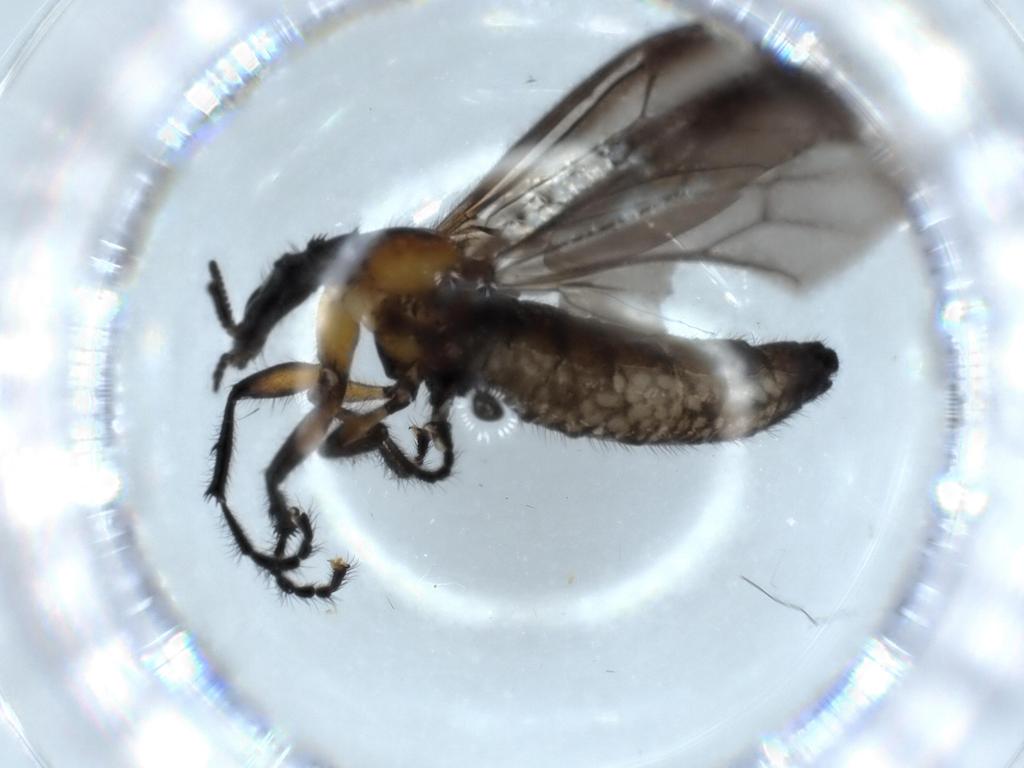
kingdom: Animalia
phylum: Arthropoda
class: Insecta
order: Diptera
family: Bibionidae
